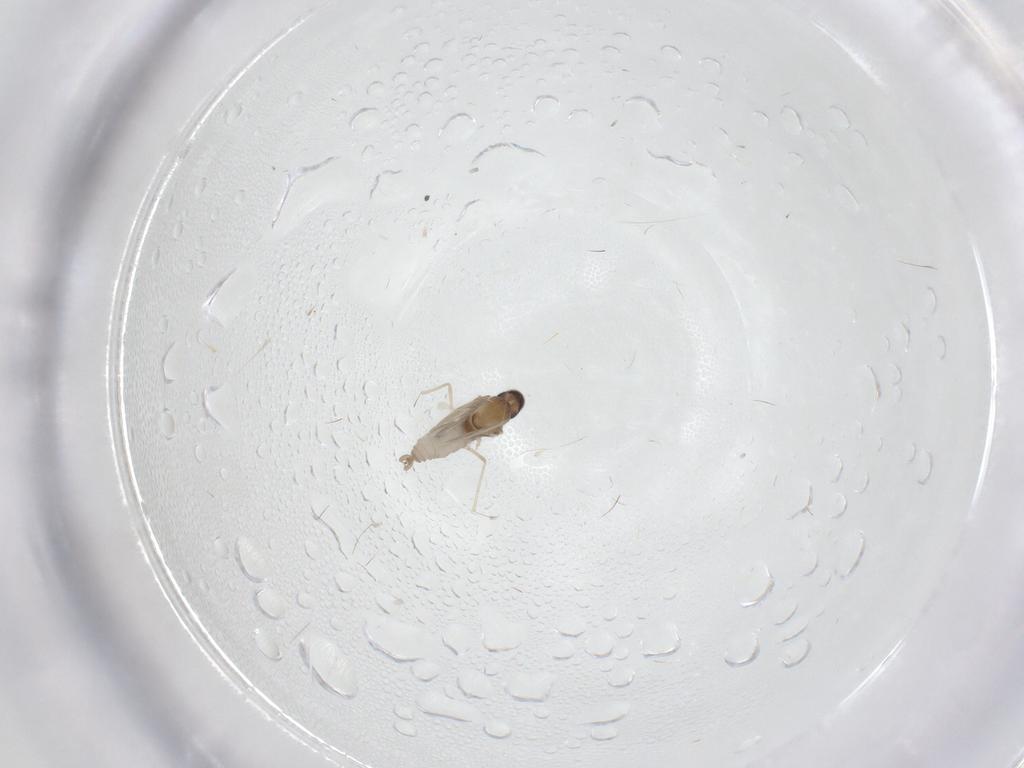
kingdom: Animalia
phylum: Arthropoda
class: Insecta
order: Diptera
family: Cecidomyiidae
